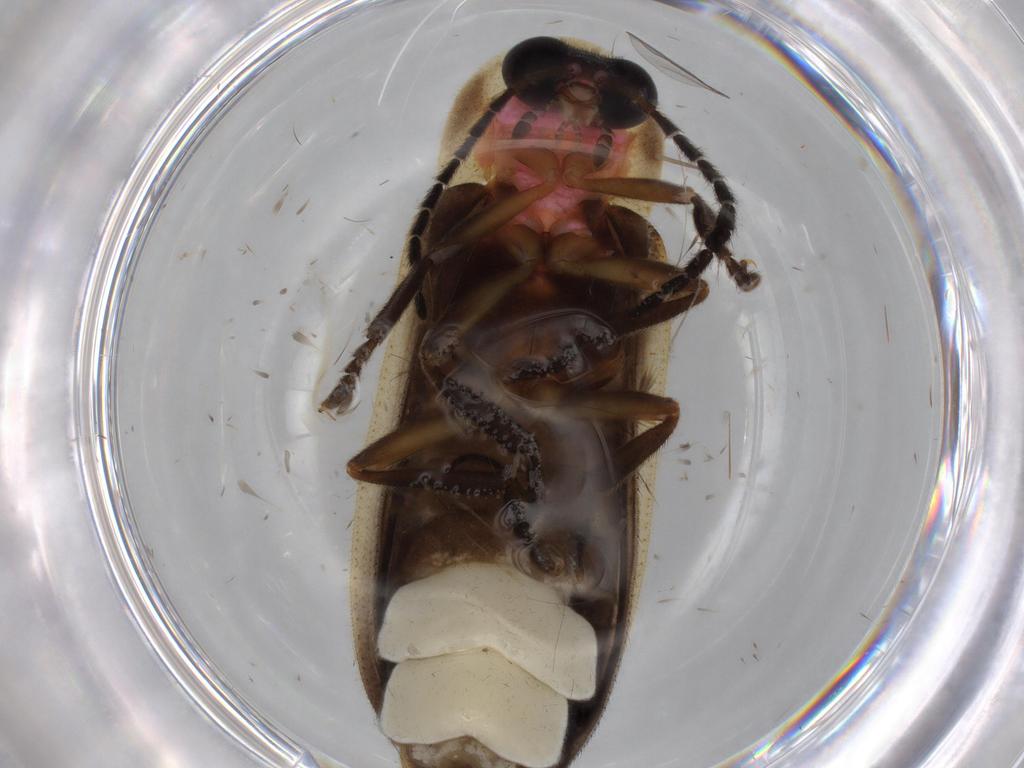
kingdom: Animalia
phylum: Arthropoda
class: Insecta
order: Coleoptera
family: Lampyridae
